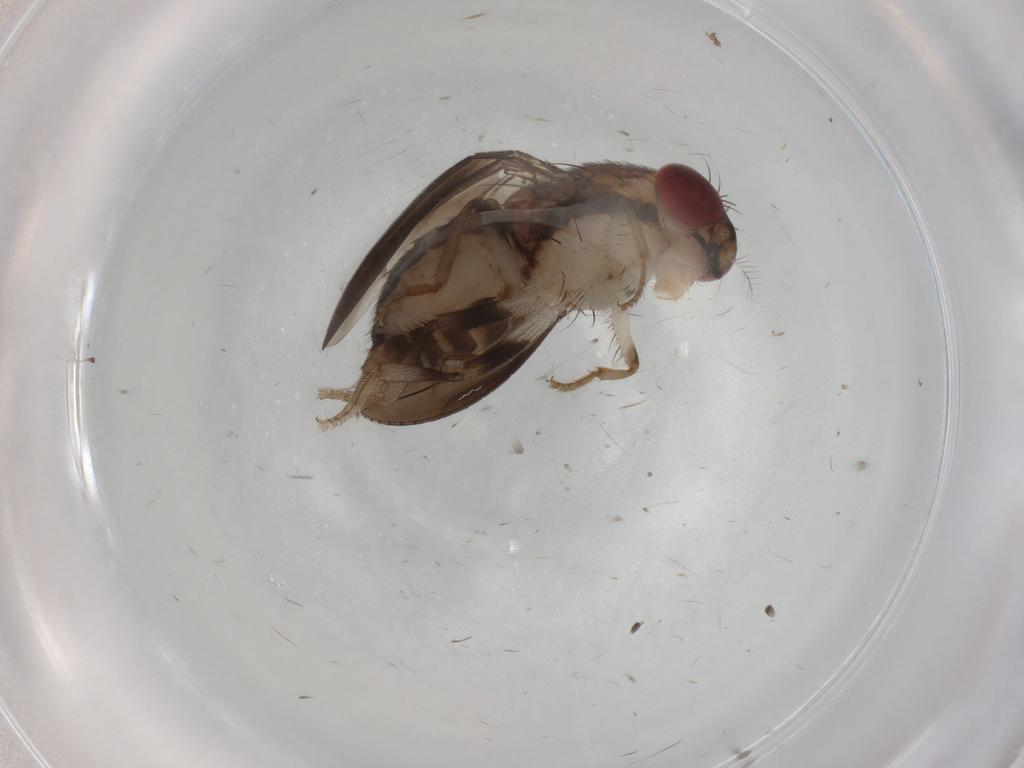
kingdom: Animalia
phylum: Arthropoda
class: Insecta
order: Diptera
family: Drosophilidae
